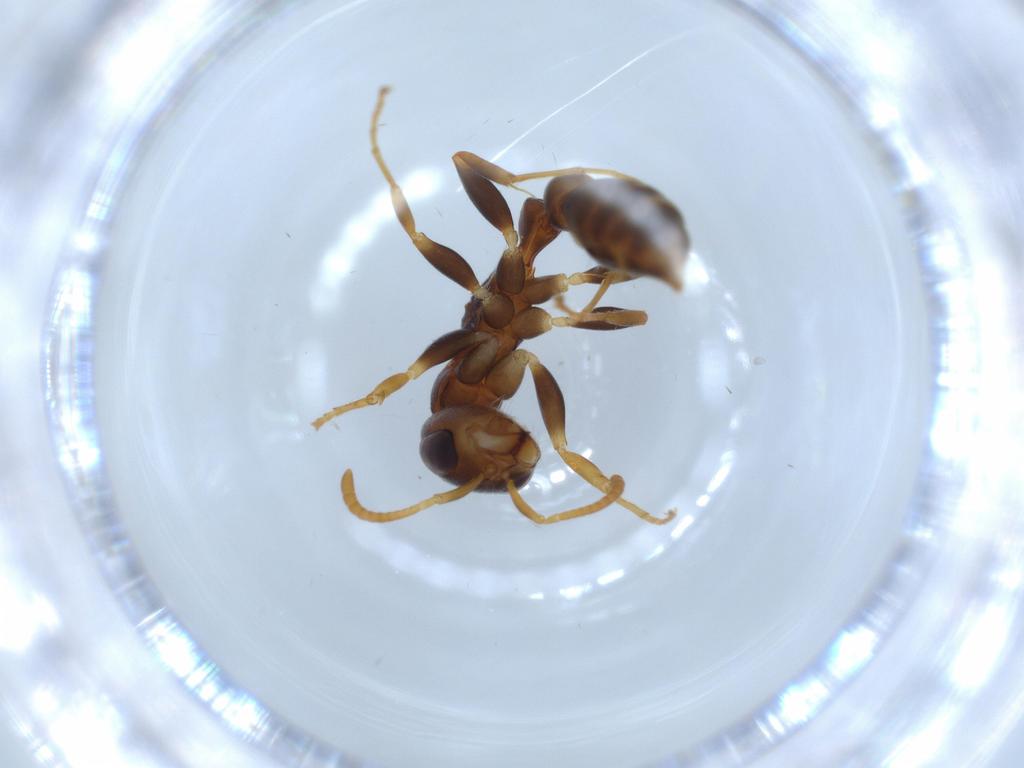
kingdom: Animalia
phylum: Arthropoda
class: Insecta
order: Hymenoptera
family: Formicidae
